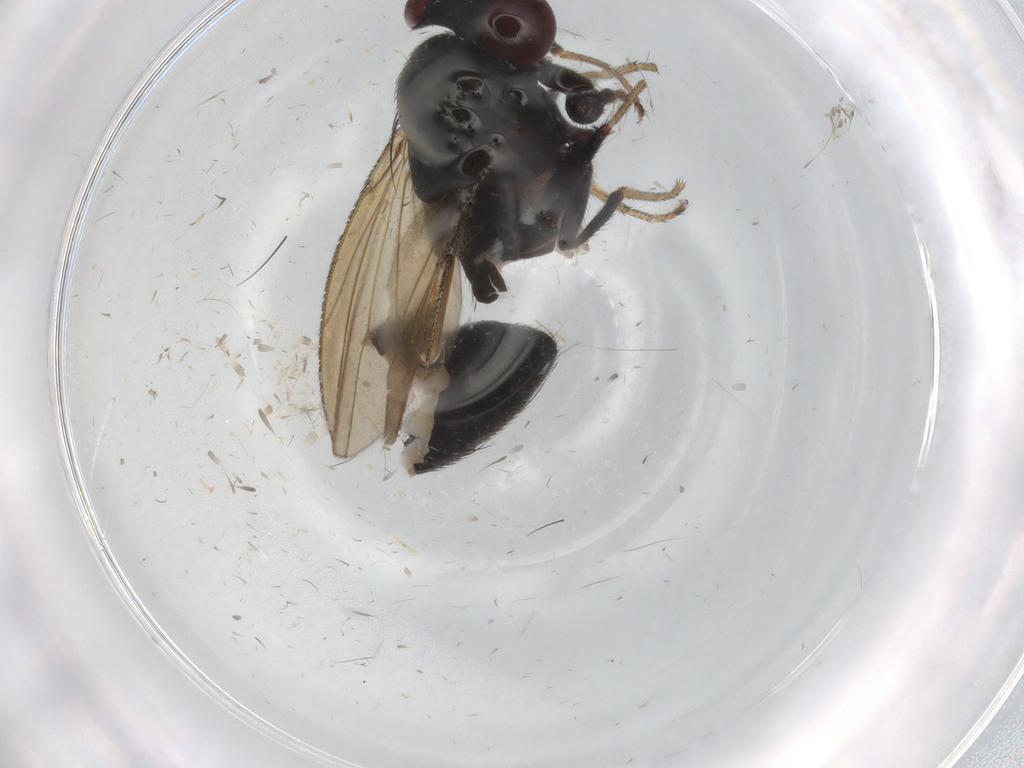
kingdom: Animalia
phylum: Arthropoda
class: Insecta
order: Diptera
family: Ephydridae
